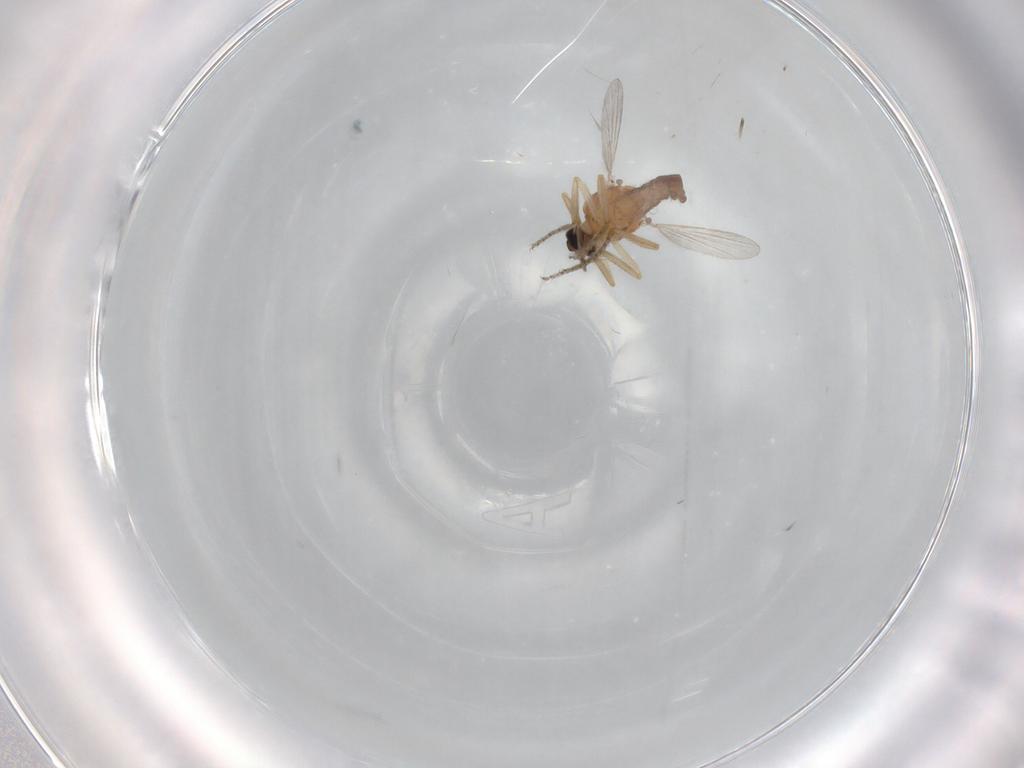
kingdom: Animalia
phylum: Arthropoda
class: Insecta
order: Diptera
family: Ceratopogonidae
